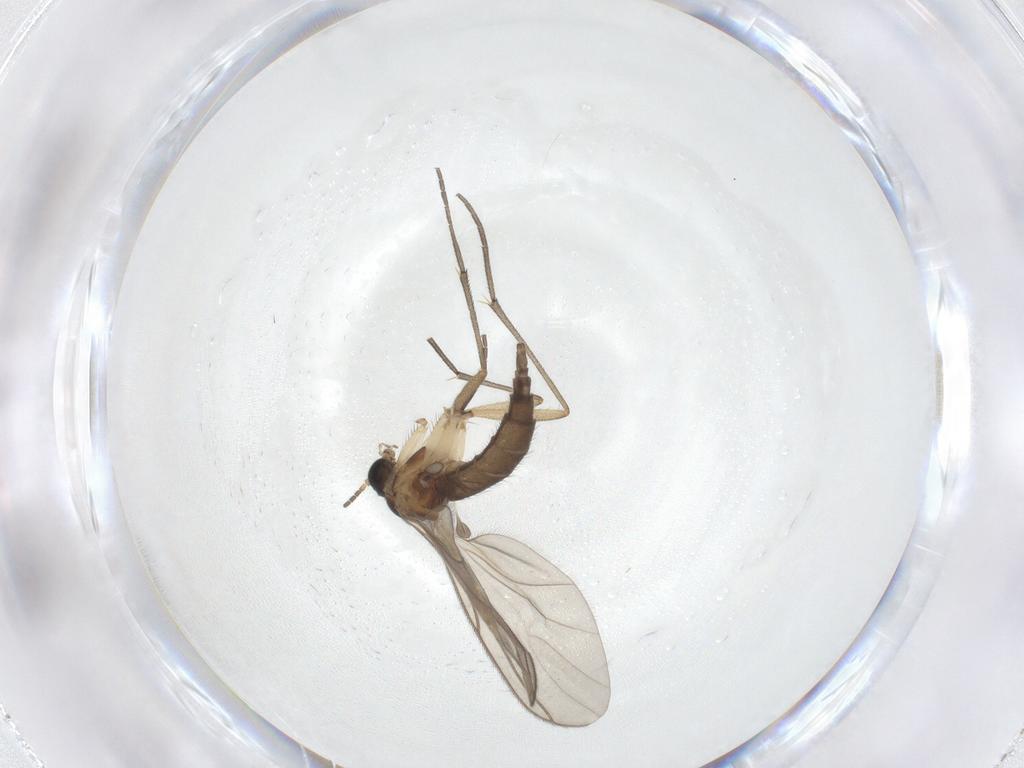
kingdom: Animalia
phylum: Arthropoda
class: Insecta
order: Diptera
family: Sciaridae
